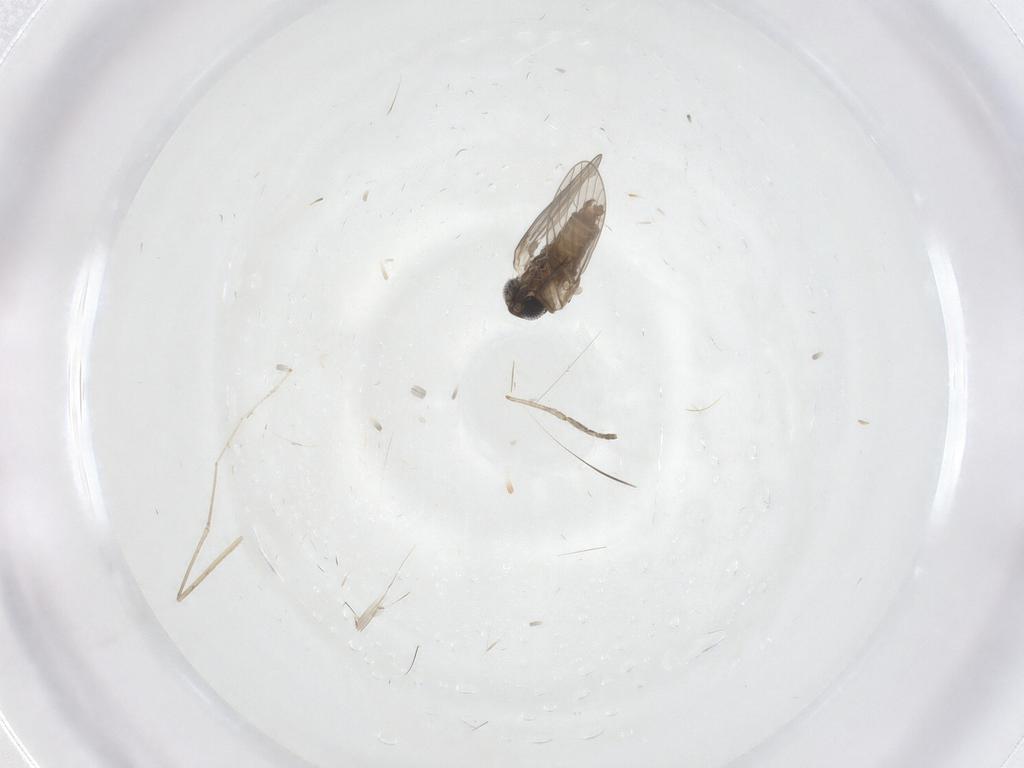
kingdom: Animalia
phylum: Arthropoda
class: Insecta
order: Diptera
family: Cecidomyiidae
